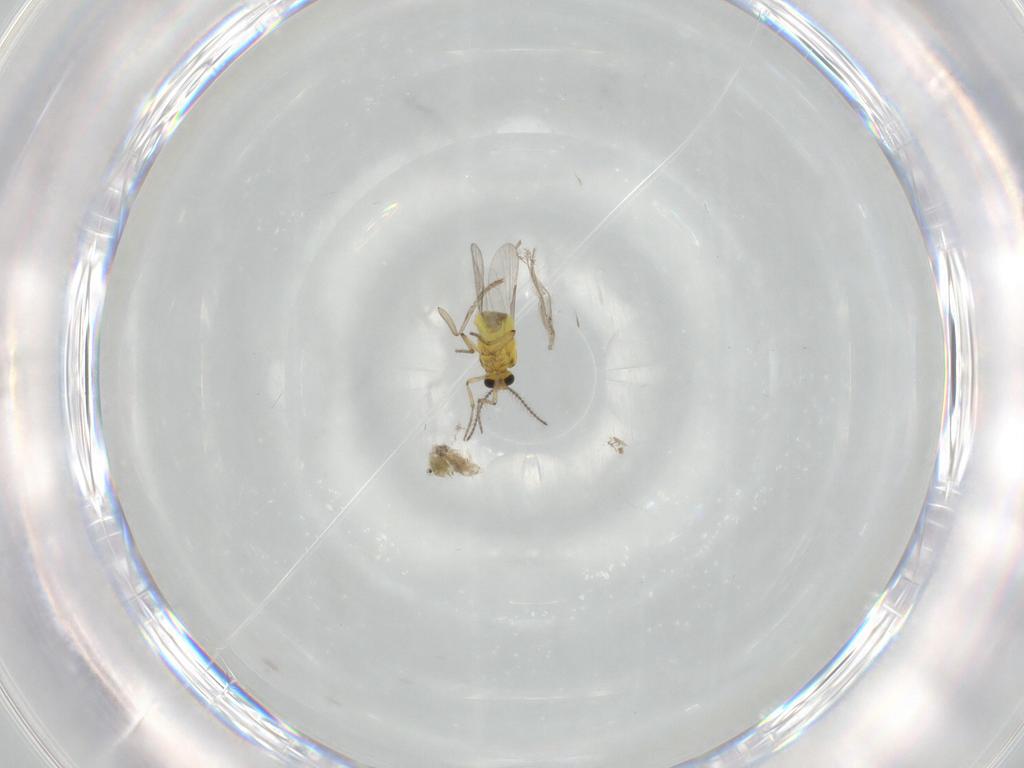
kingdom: Animalia
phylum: Arthropoda
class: Insecta
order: Diptera
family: Ceratopogonidae
